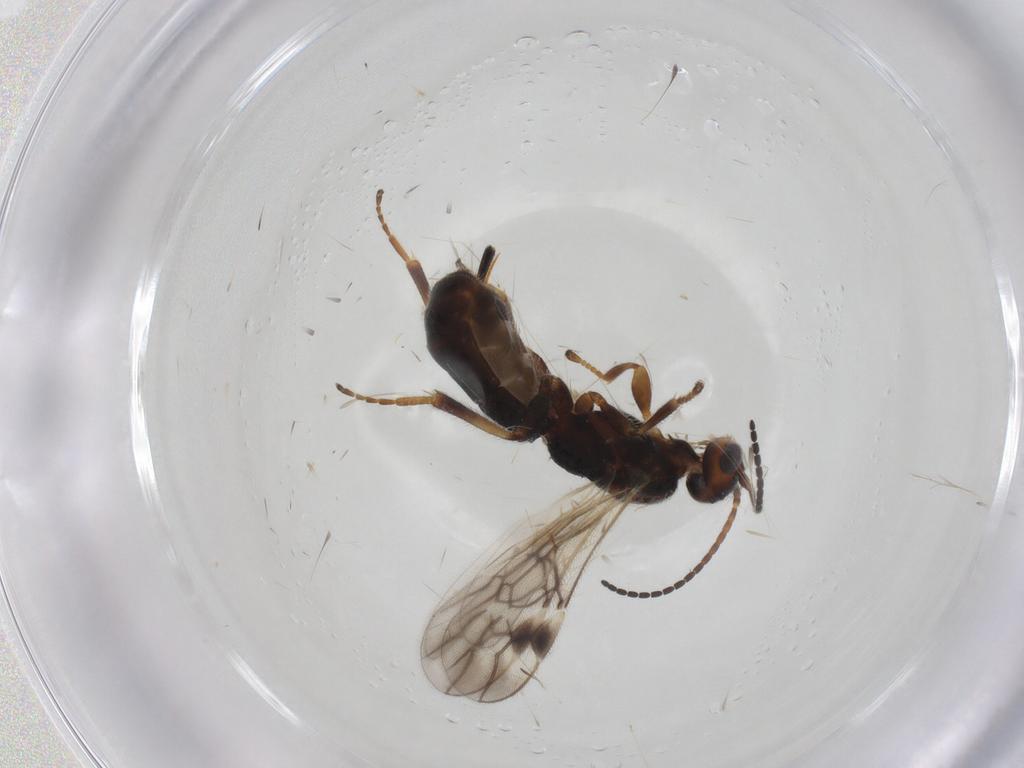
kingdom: Animalia
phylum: Arthropoda
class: Insecta
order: Hymenoptera
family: Braconidae
